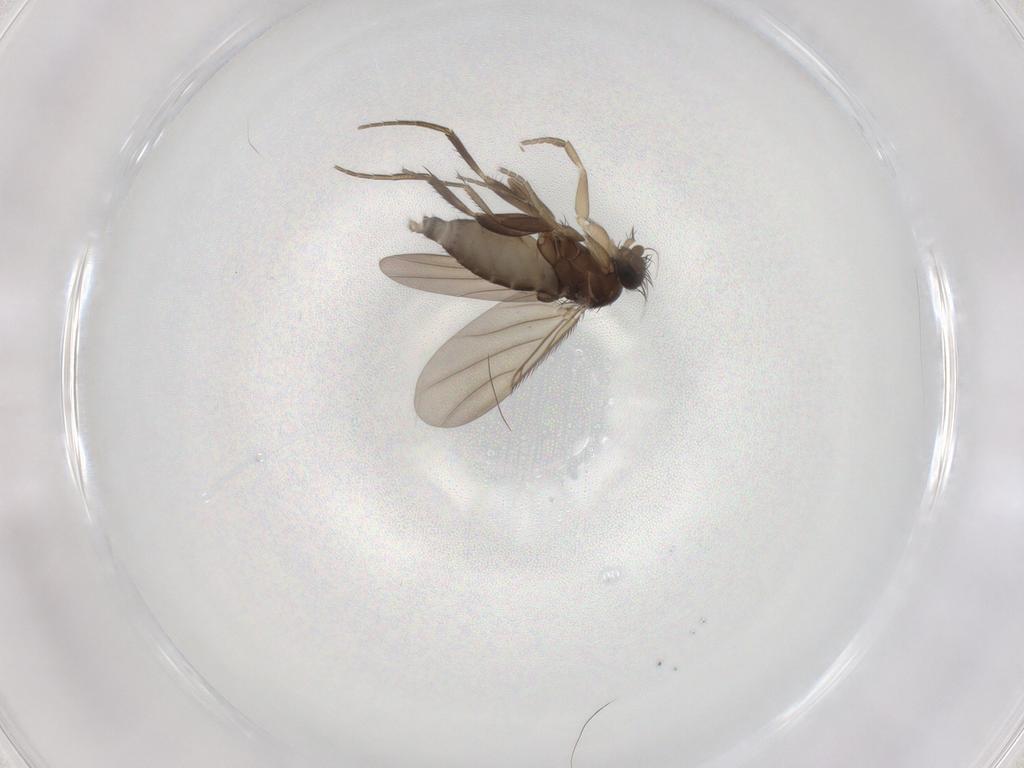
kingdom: Animalia
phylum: Arthropoda
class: Insecta
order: Diptera
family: Phoridae
